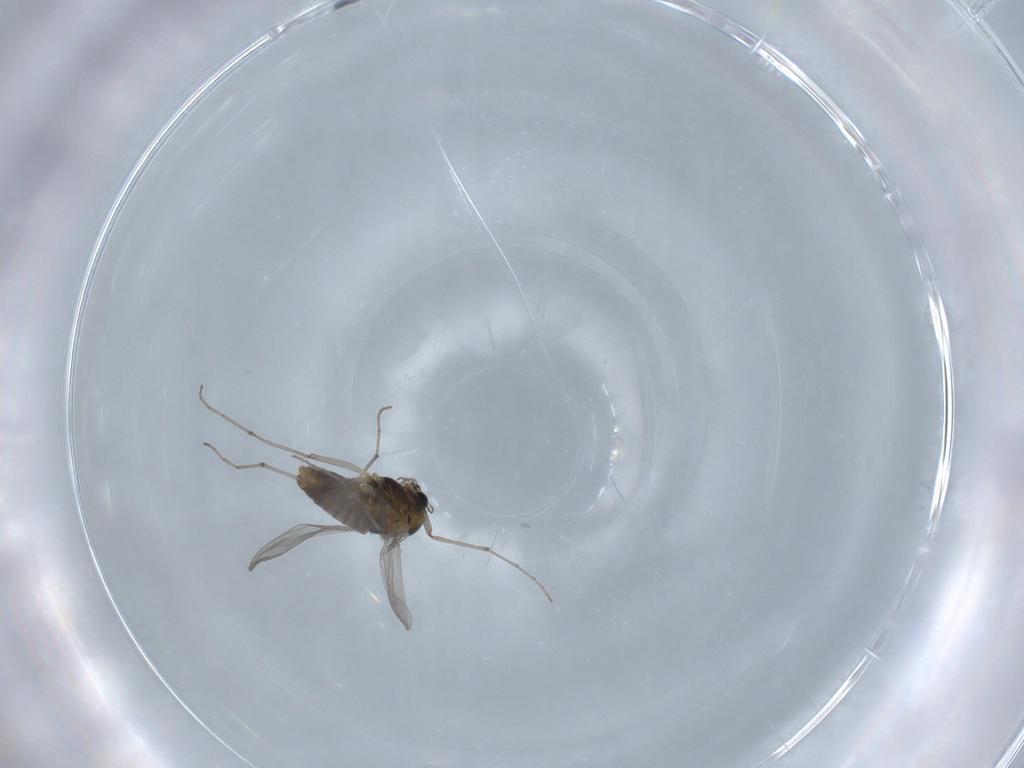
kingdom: Animalia
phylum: Arthropoda
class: Insecta
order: Diptera
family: Chironomidae
